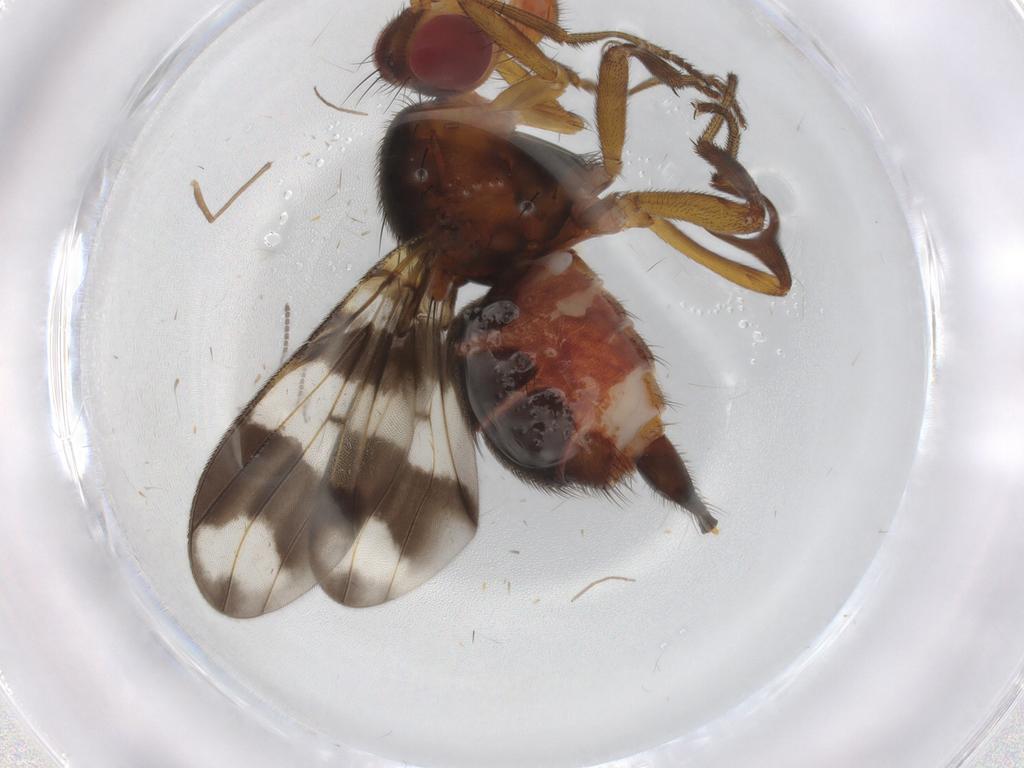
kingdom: Animalia
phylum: Arthropoda
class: Insecta
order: Diptera
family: Richardiidae
